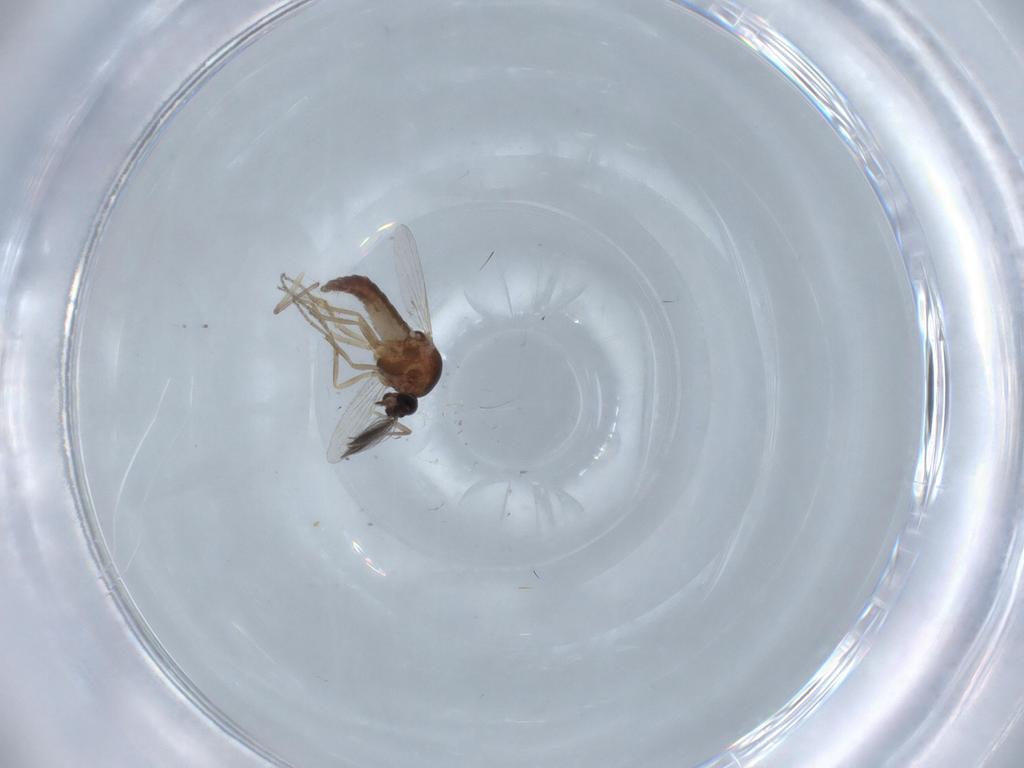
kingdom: Animalia
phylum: Arthropoda
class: Insecta
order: Diptera
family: Ceratopogonidae
